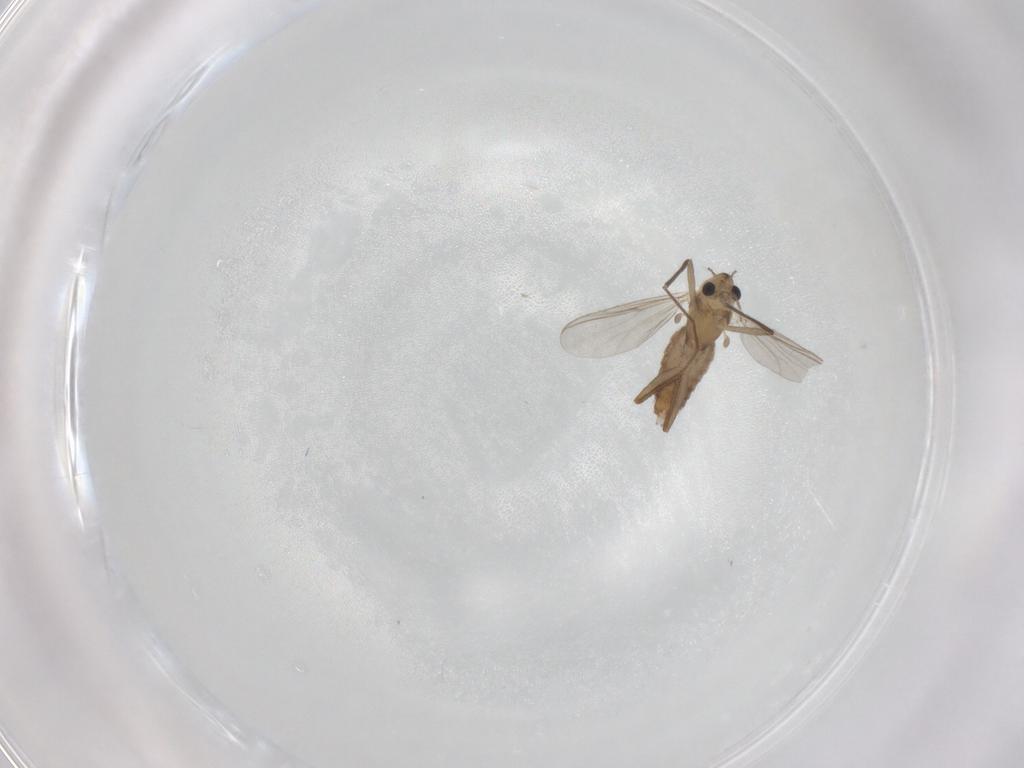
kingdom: Animalia
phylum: Arthropoda
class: Insecta
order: Diptera
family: Chironomidae
